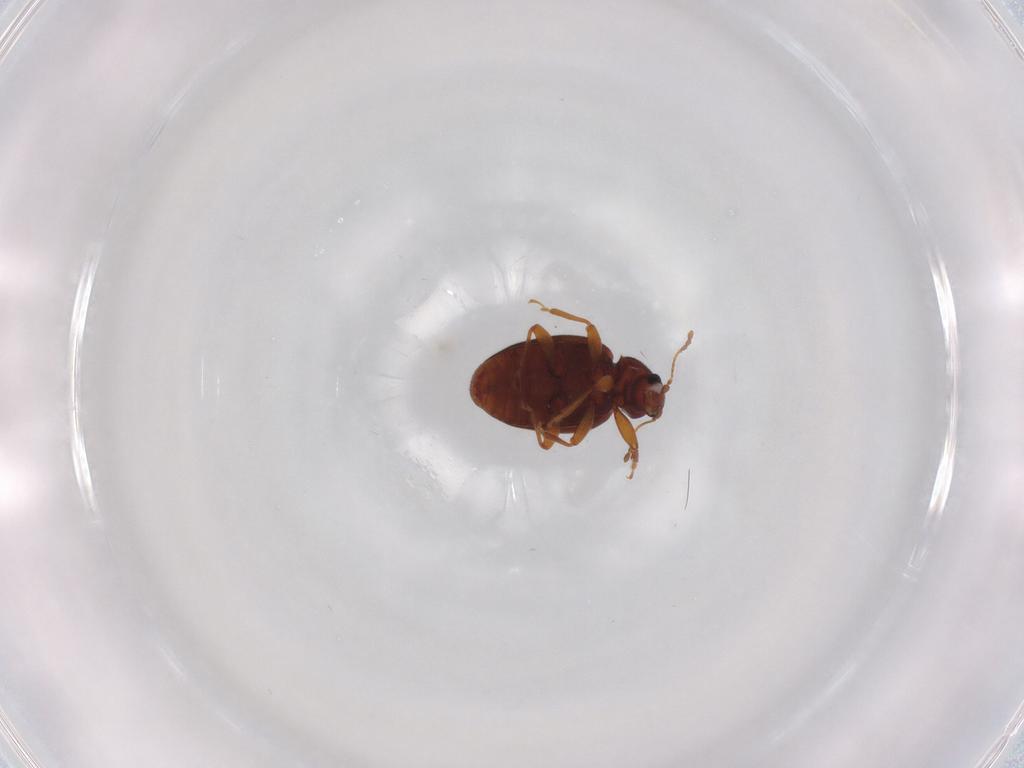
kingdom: Animalia
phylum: Arthropoda
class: Insecta
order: Coleoptera
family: Latridiidae
